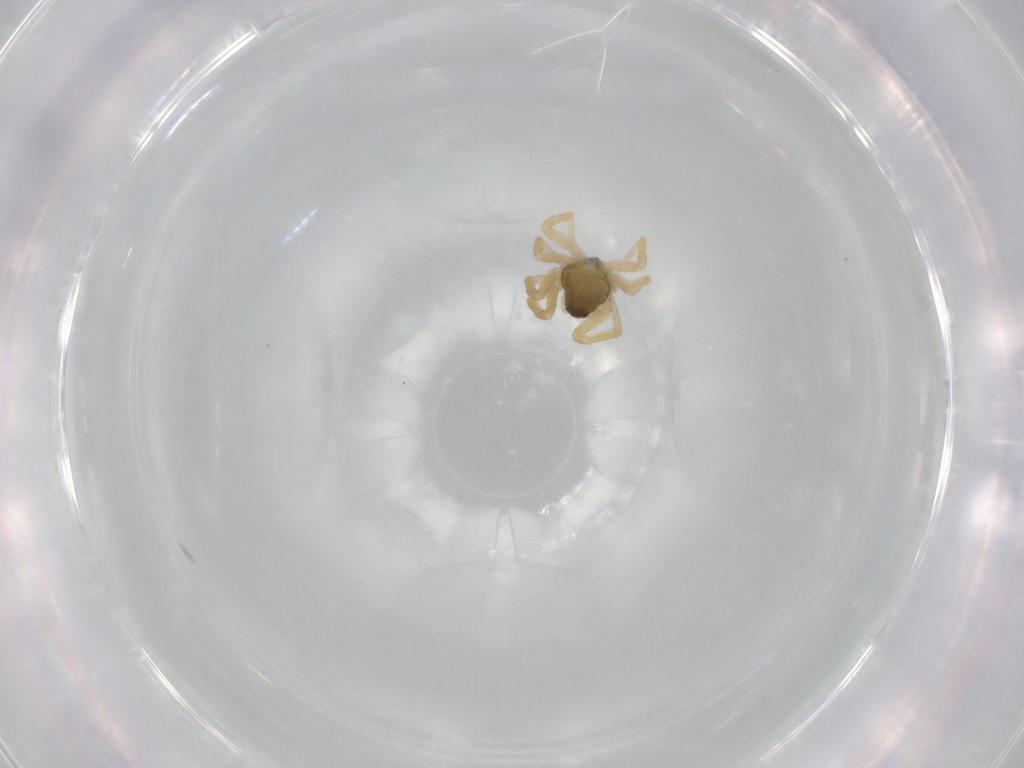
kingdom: Animalia
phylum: Arthropoda
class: Arachnida
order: Araneae
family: Linyphiidae
